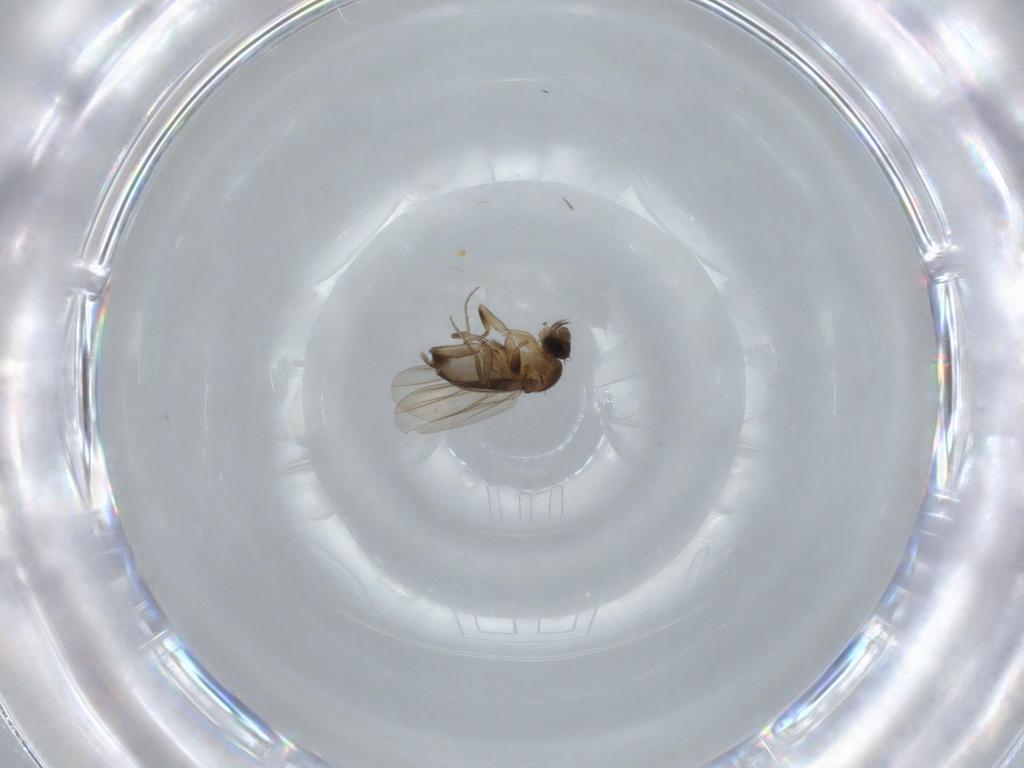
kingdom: Animalia
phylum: Arthropoda
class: Insecta
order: Diptera
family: Phoridae
